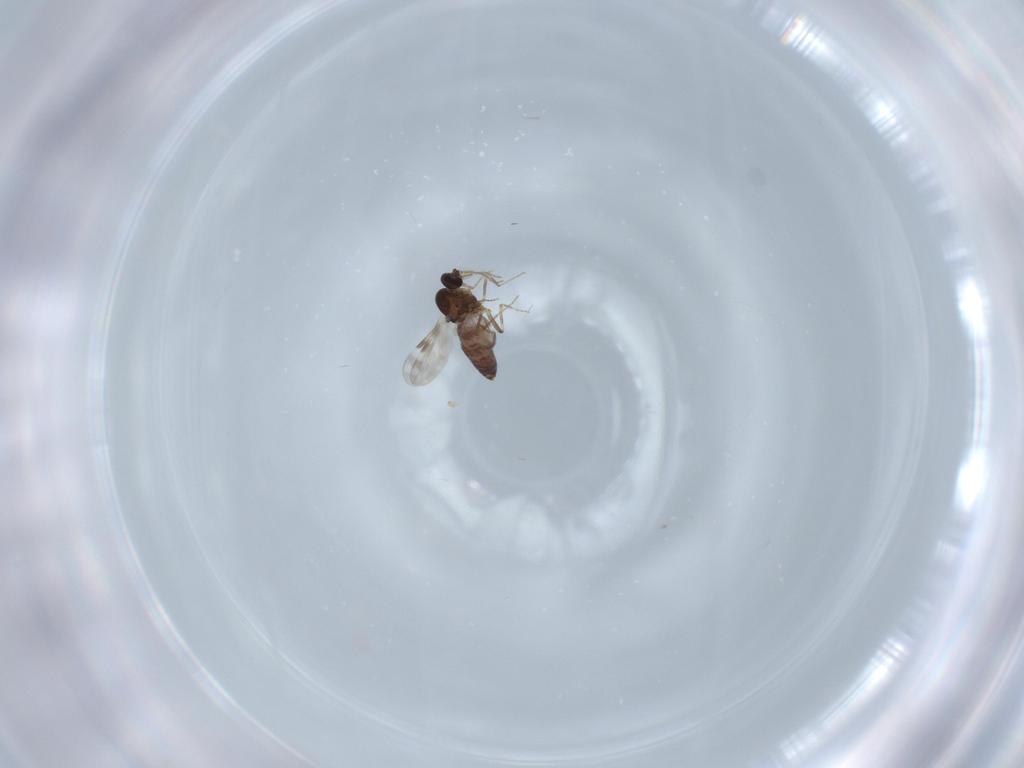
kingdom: Animalia
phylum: Arthropoda
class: Insecta
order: Diptera
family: Ceratopogonidae
